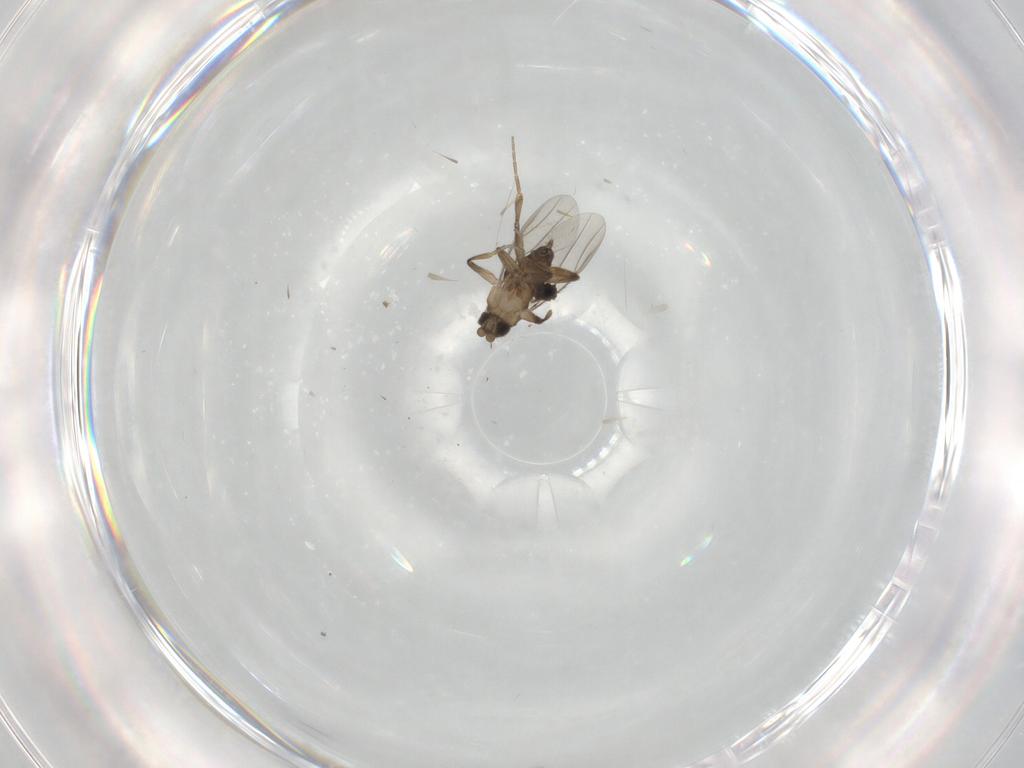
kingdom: Animalia
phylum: Arthropoda
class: Insecta
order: Diptera
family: Phoridae
